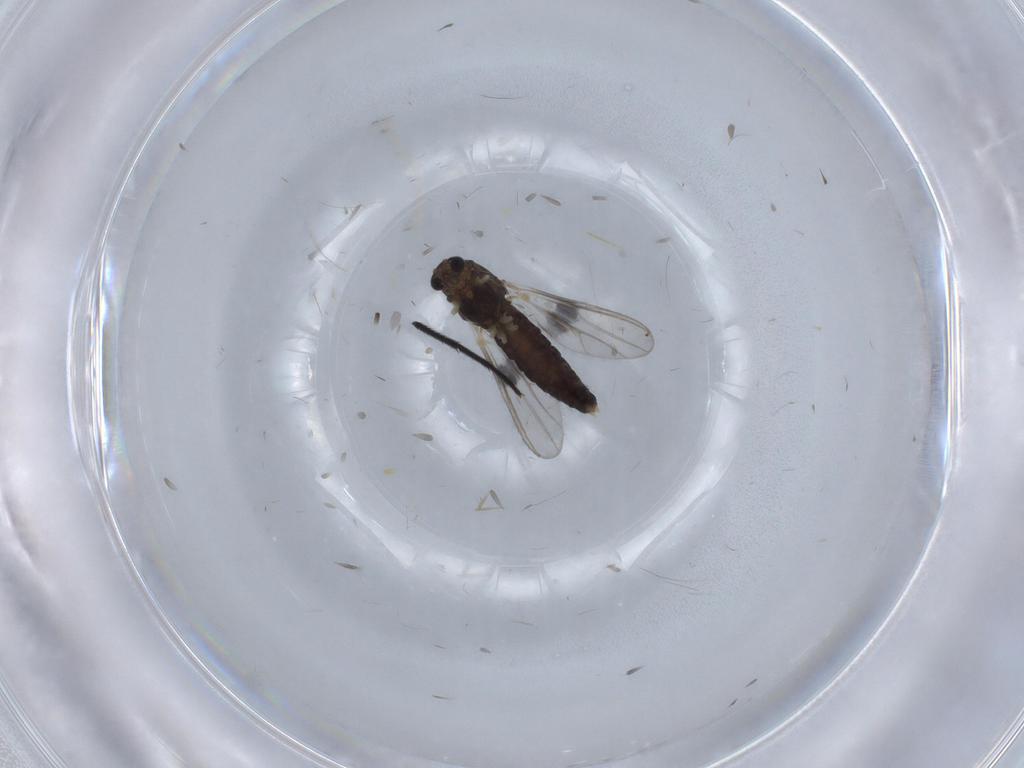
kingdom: Animalia
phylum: Arthropoda
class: Insecta
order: Diptera
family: Chironomidae
